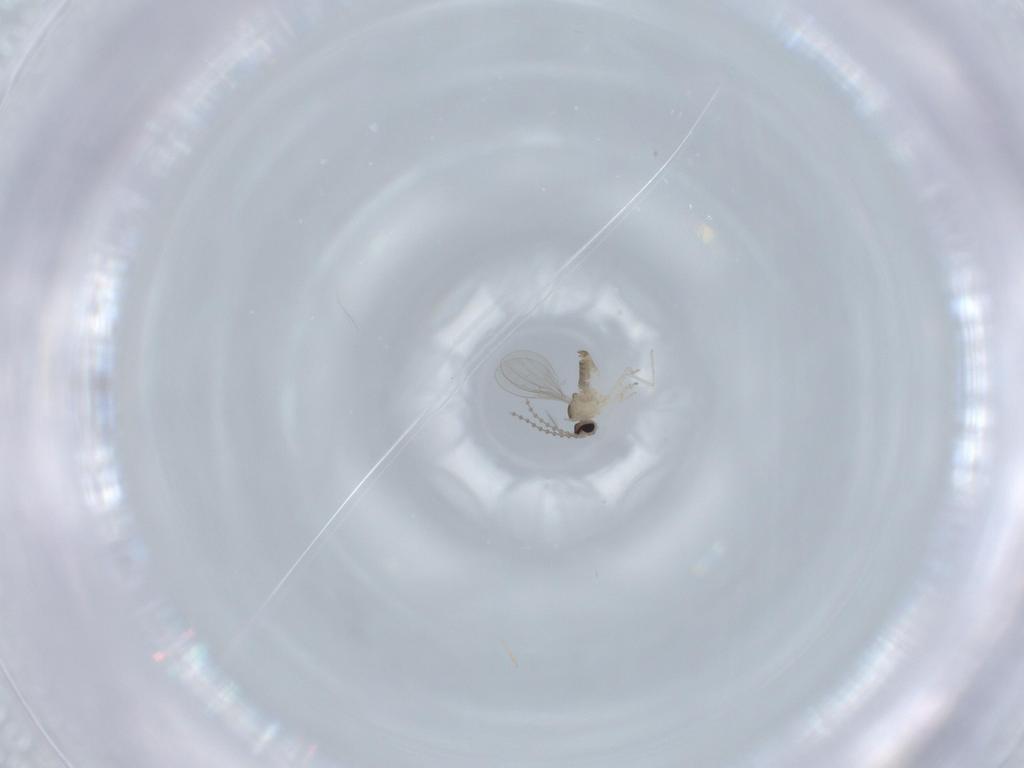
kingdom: Animalia
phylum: Arthropoda
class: Insecta
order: Diptera
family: Cecidomyiidae
